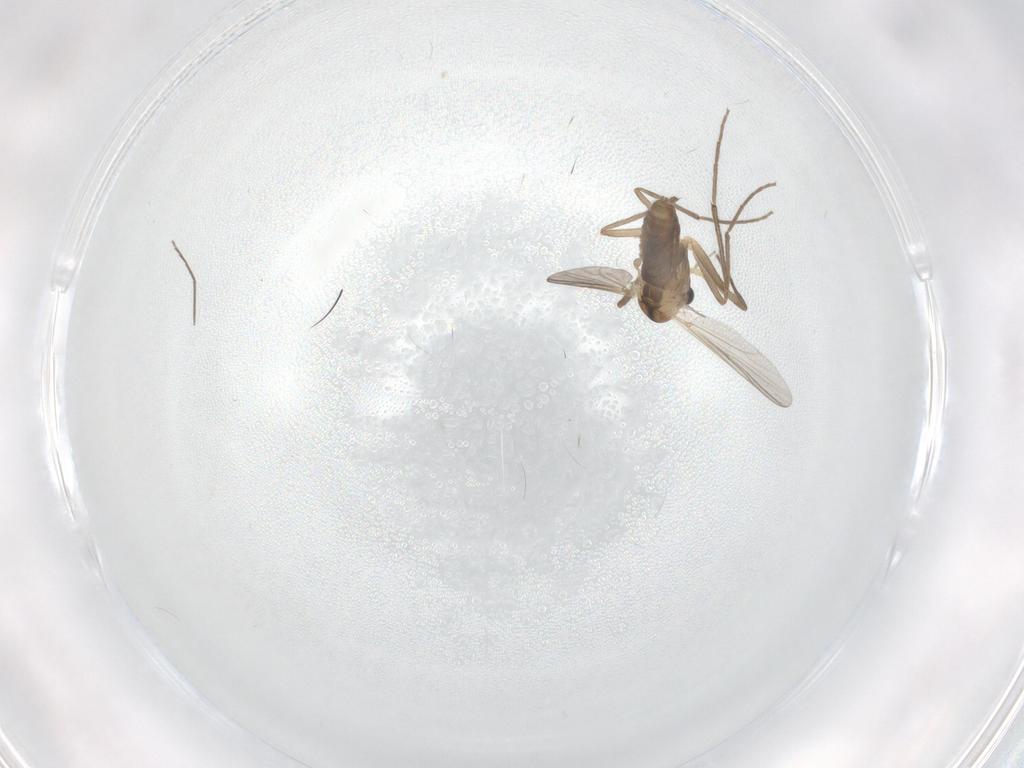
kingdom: Animalia
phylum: Arthropoda
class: Insecta
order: Diptera
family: Chironomidae
